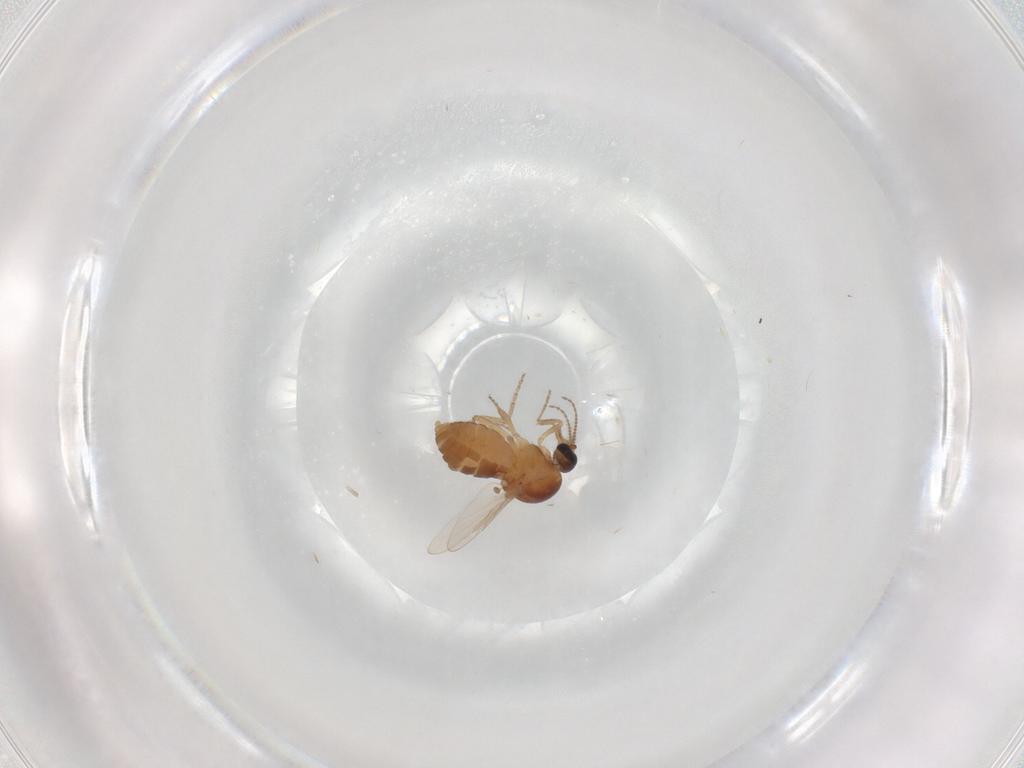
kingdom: Animalia
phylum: Arthropoda
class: Insecta
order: Diptera
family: Ceratopogonidae
